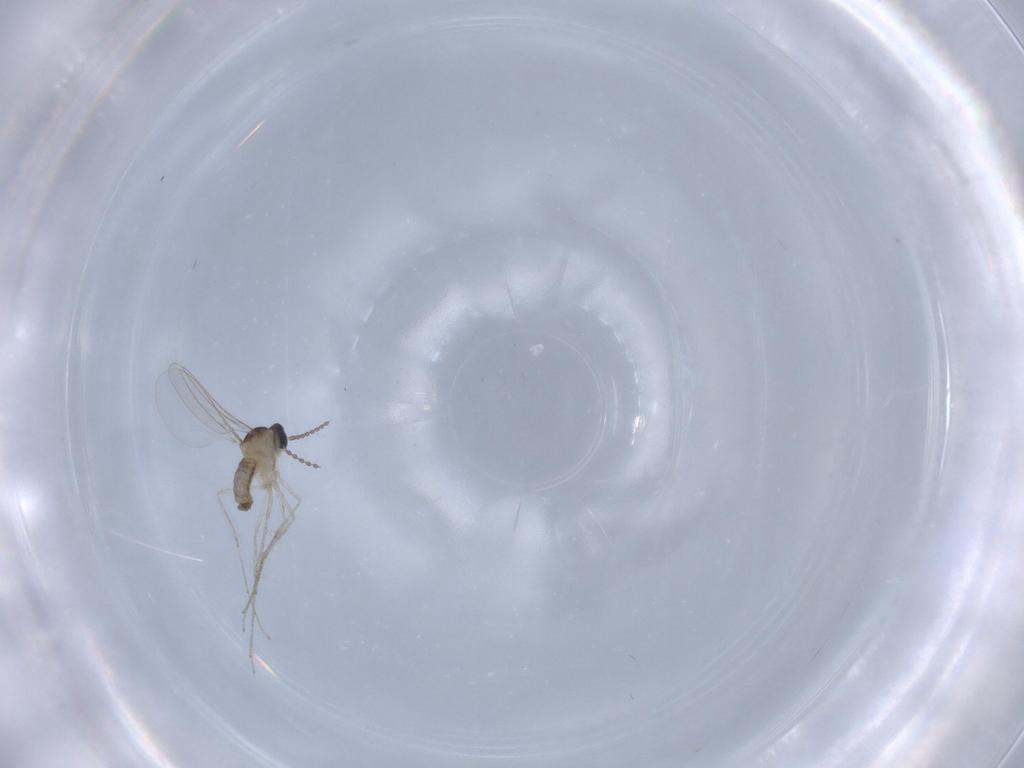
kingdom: Animalia
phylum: Arthropoda
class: Insecta
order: Diptera
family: Cecidomyiidae
